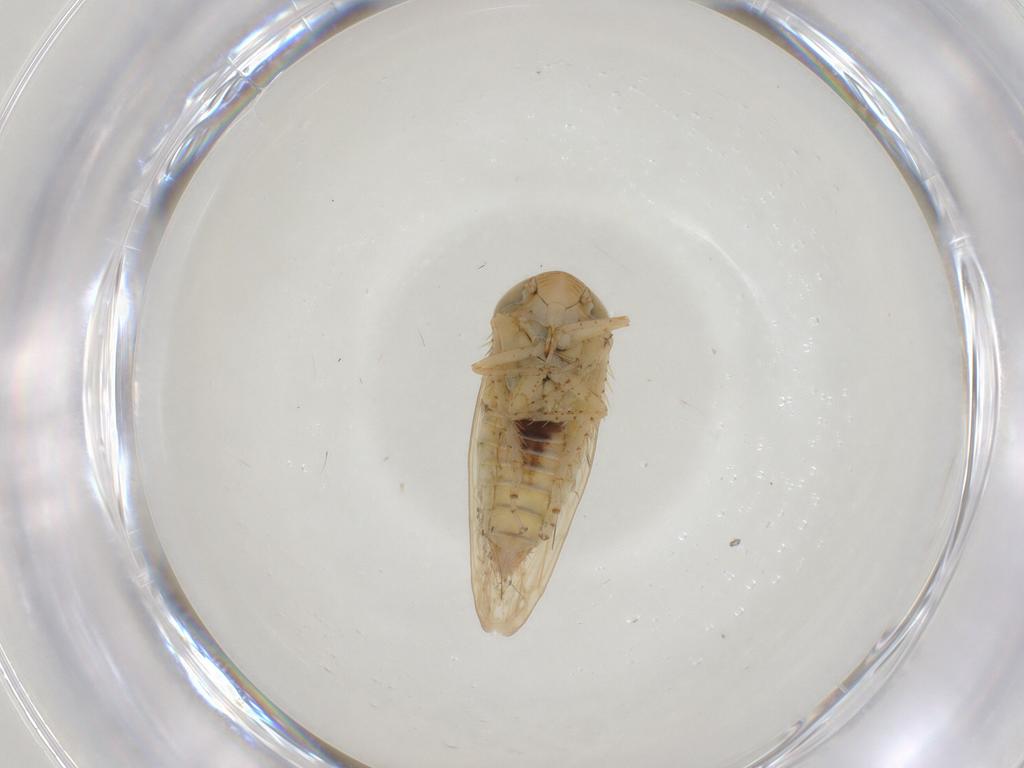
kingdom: Animalia
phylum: Arthropoda
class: Insecta
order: Hemiptera
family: Cicadellidae
